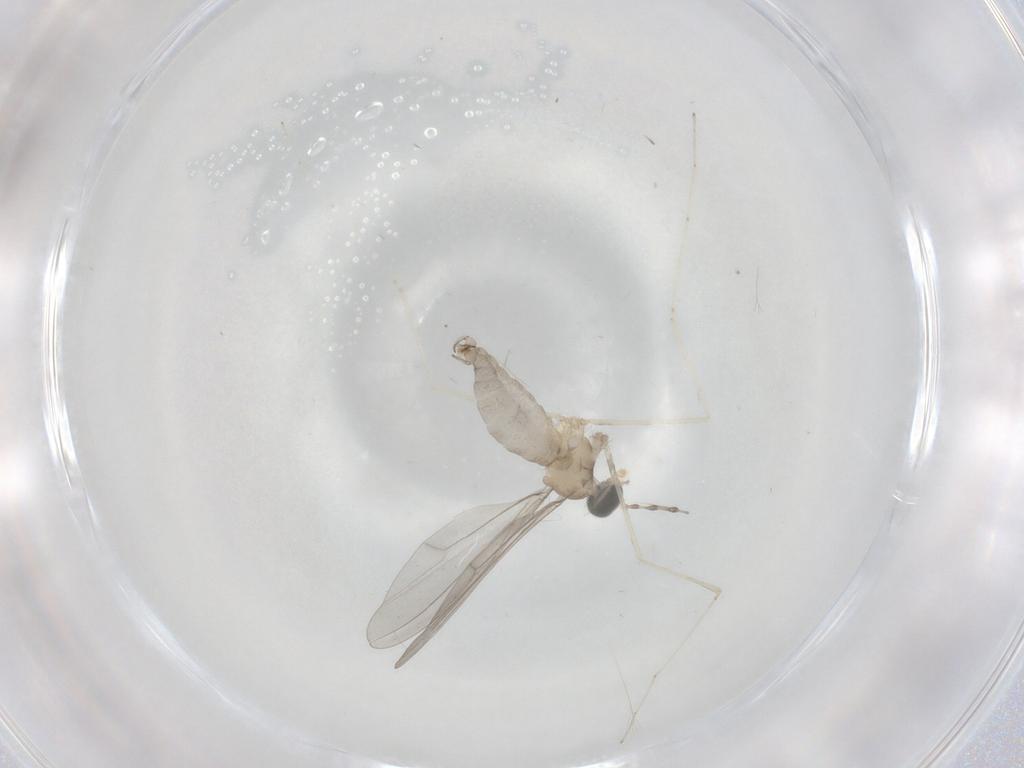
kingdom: Animalia
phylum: Arthropoda
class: Insecta
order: Diptera
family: Cecidomyiidae
